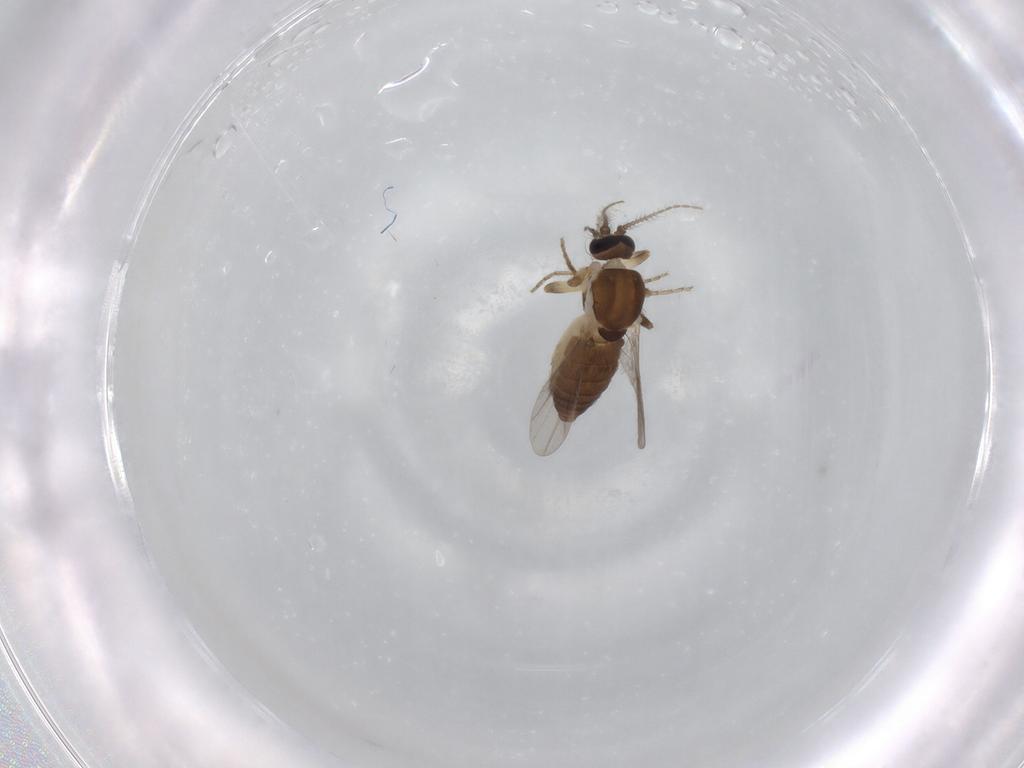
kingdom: Animalia
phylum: Arthropoda
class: Insecta
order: Diptera
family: Ceratopogonidae
